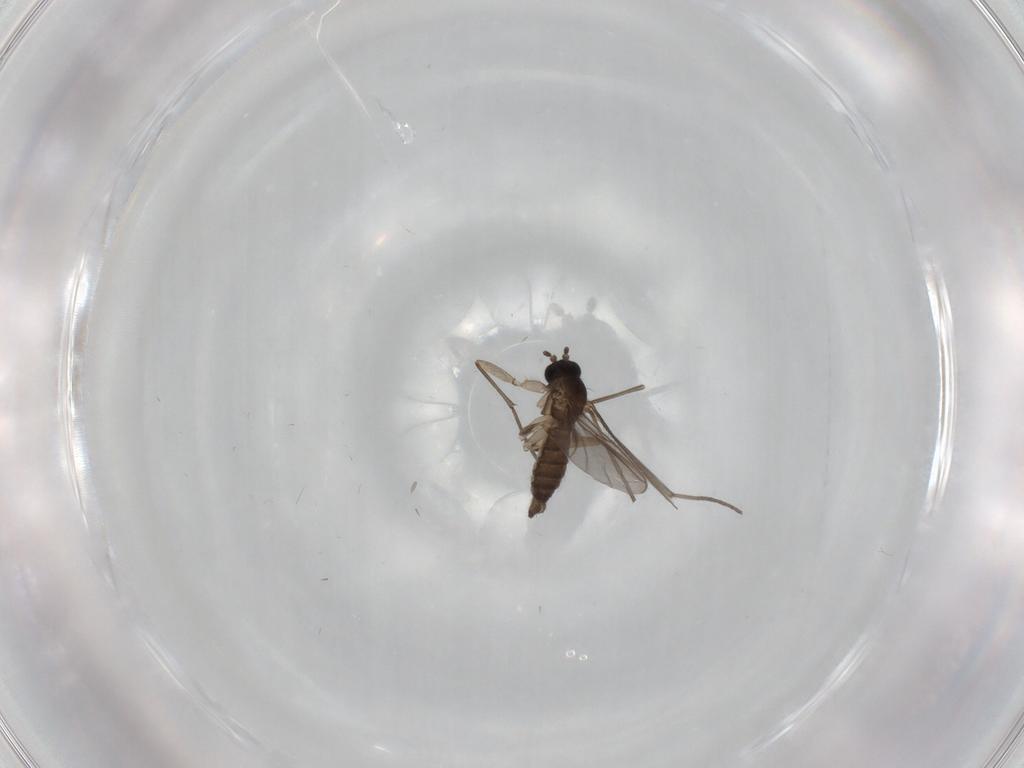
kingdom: Animalia
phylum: Arthropoda
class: Insecta
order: Diptera
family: Sciaridae
